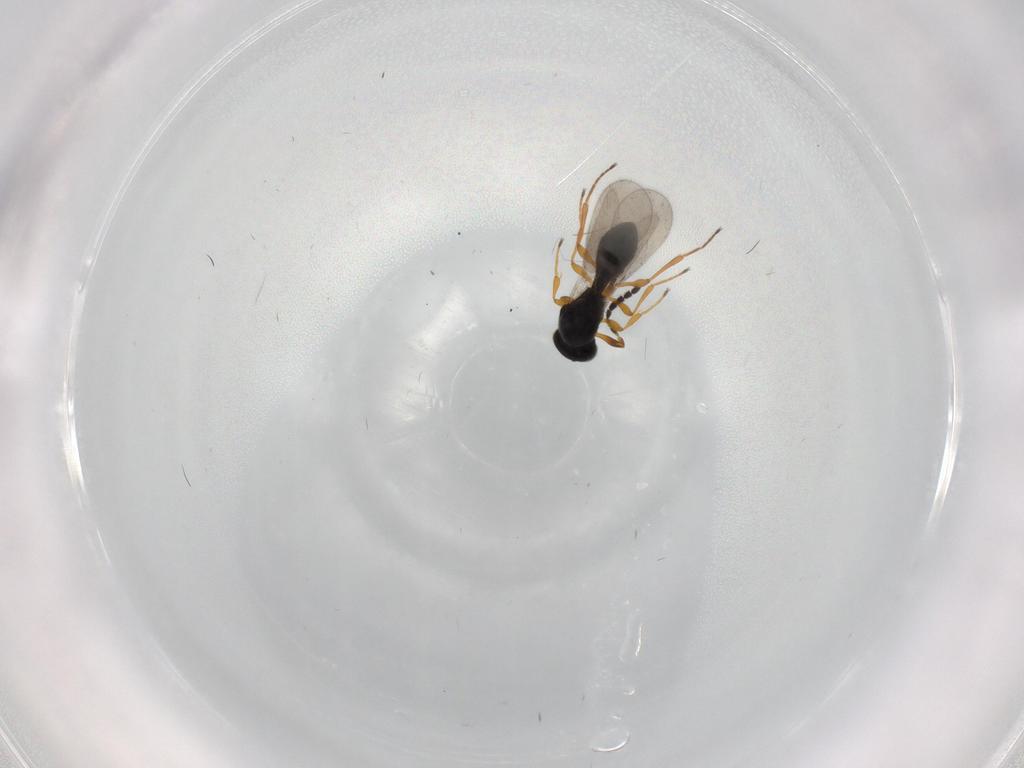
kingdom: Animalia
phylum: Arthropoda
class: Insecta
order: Hymenoptera
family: Platygastridae
